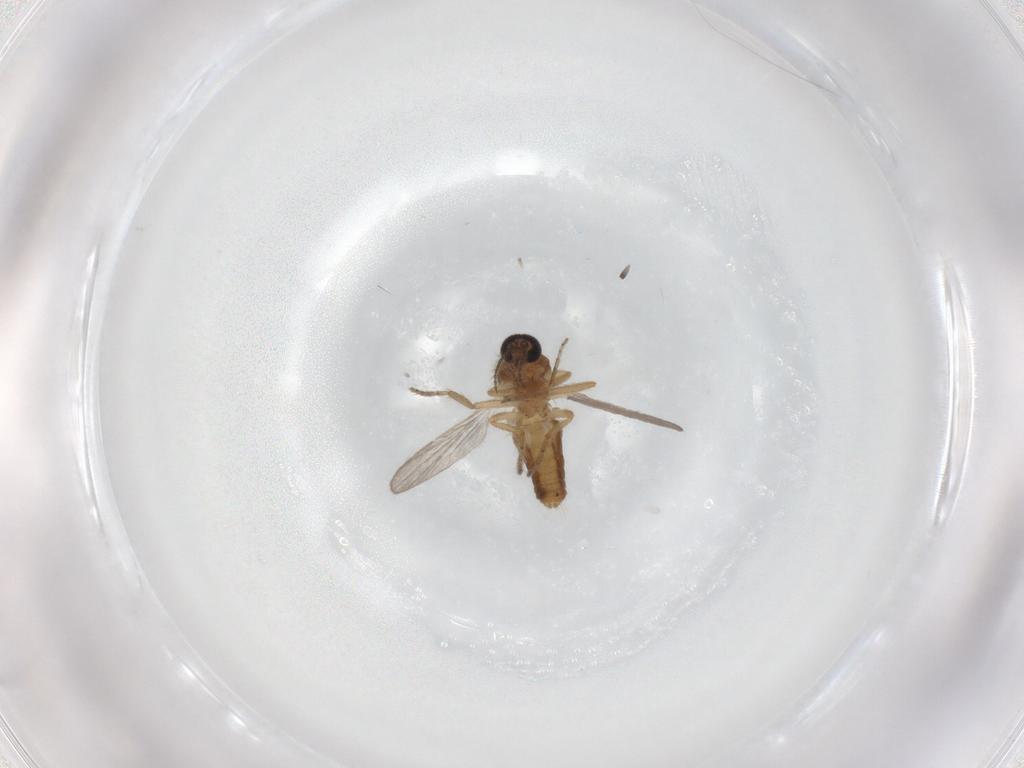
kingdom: Animalia
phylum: Arthropoda
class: Insecta
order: Diptera
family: Ceratopogonidae
